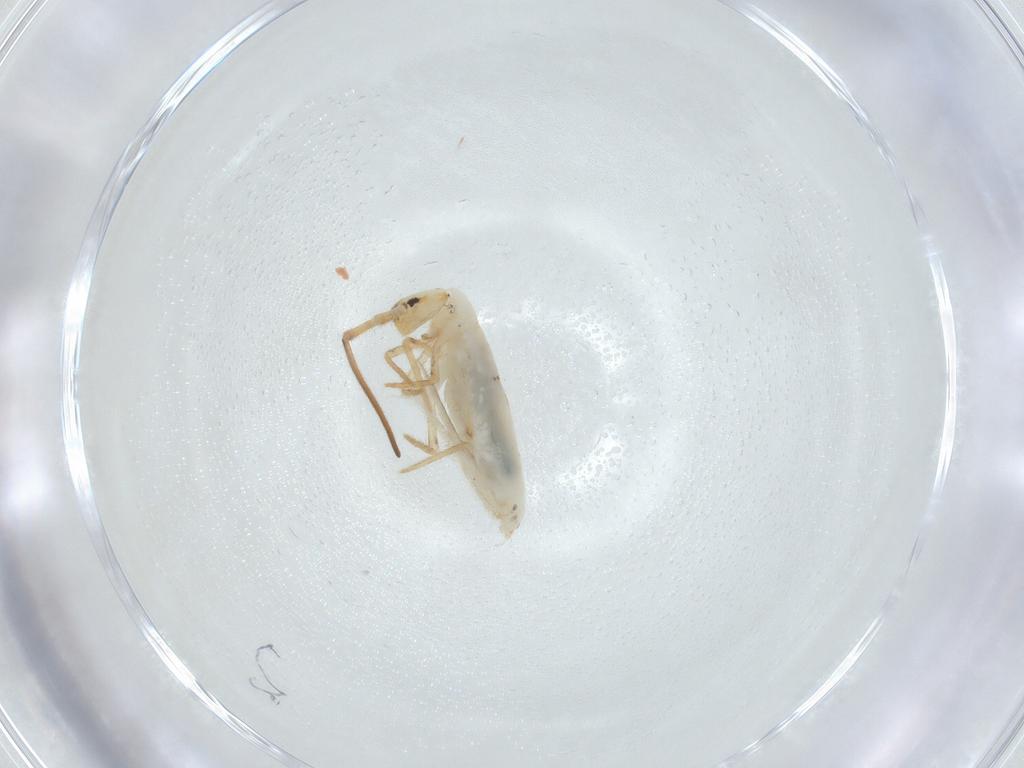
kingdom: Animalia
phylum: Arthropoda
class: Collembola
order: Entomobryomorpha
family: Entomobryidae
